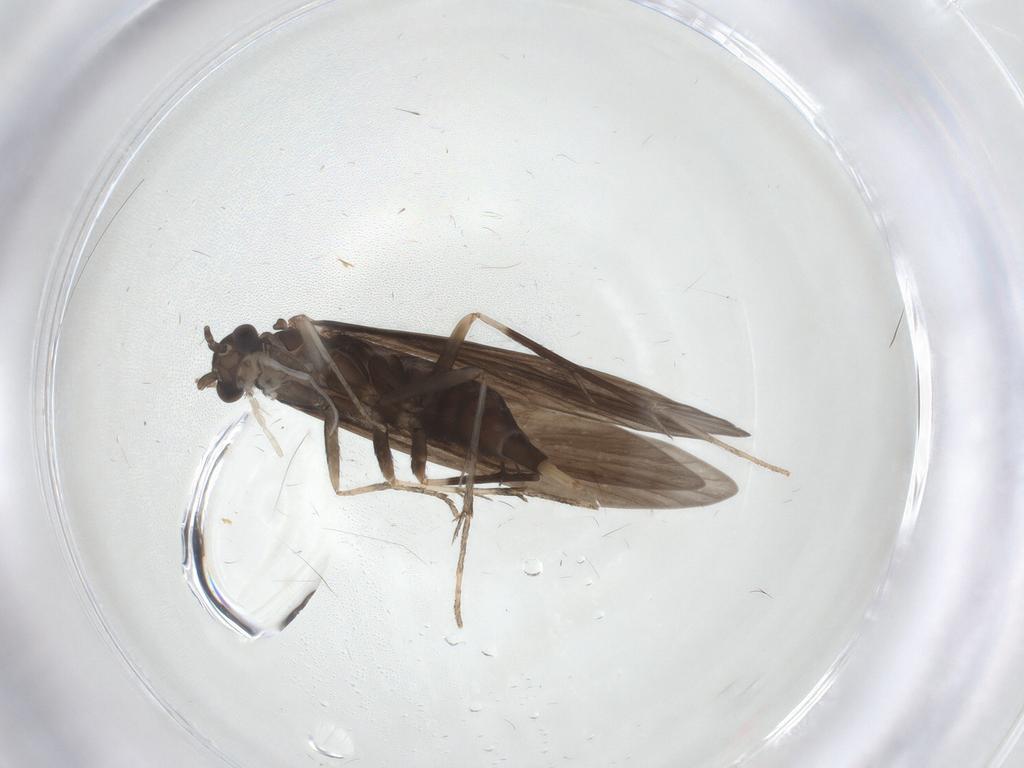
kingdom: Animalia
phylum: Arthropoda
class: Insecta
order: Trichoptera
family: Xiphocentronidae
